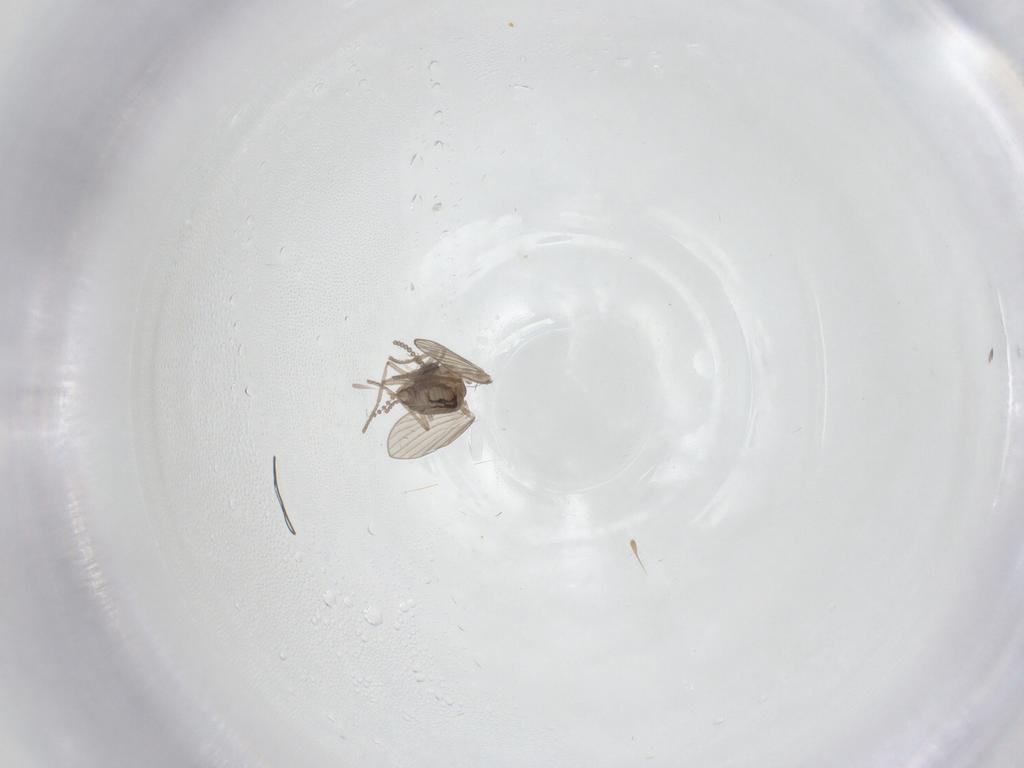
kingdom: Animalia
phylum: Arthropoda
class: Insecta
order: Diptera
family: Psychodidae
